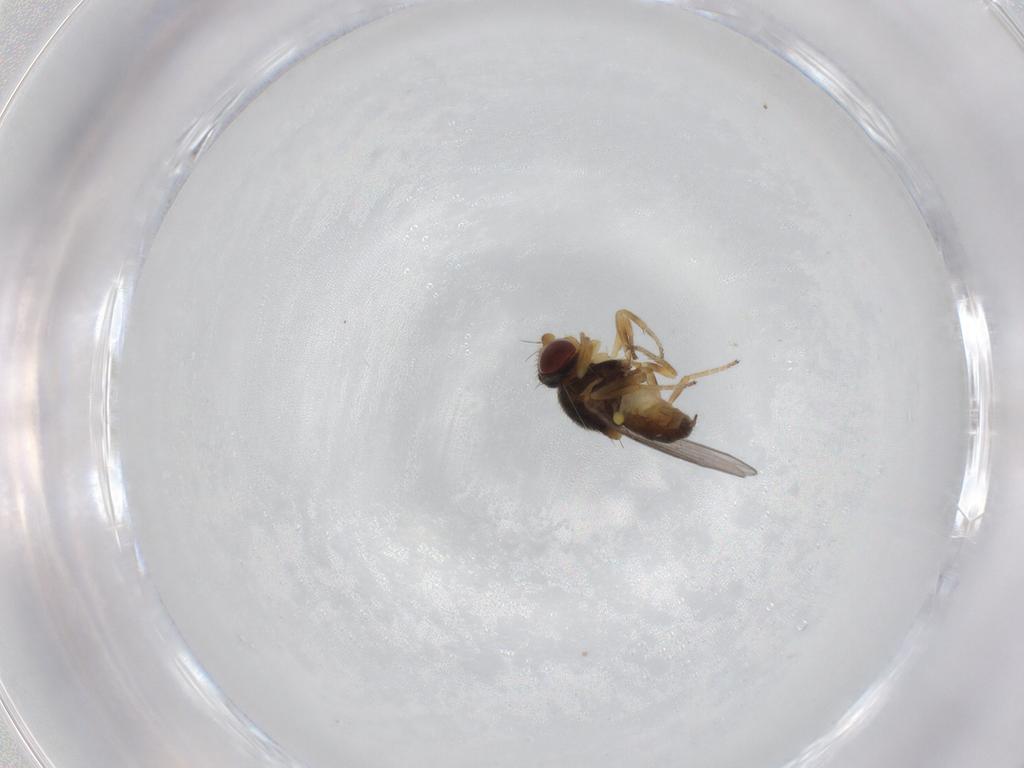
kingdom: Animalia
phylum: Arthropoda
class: Insecta
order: Diptera
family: Chloropidae
